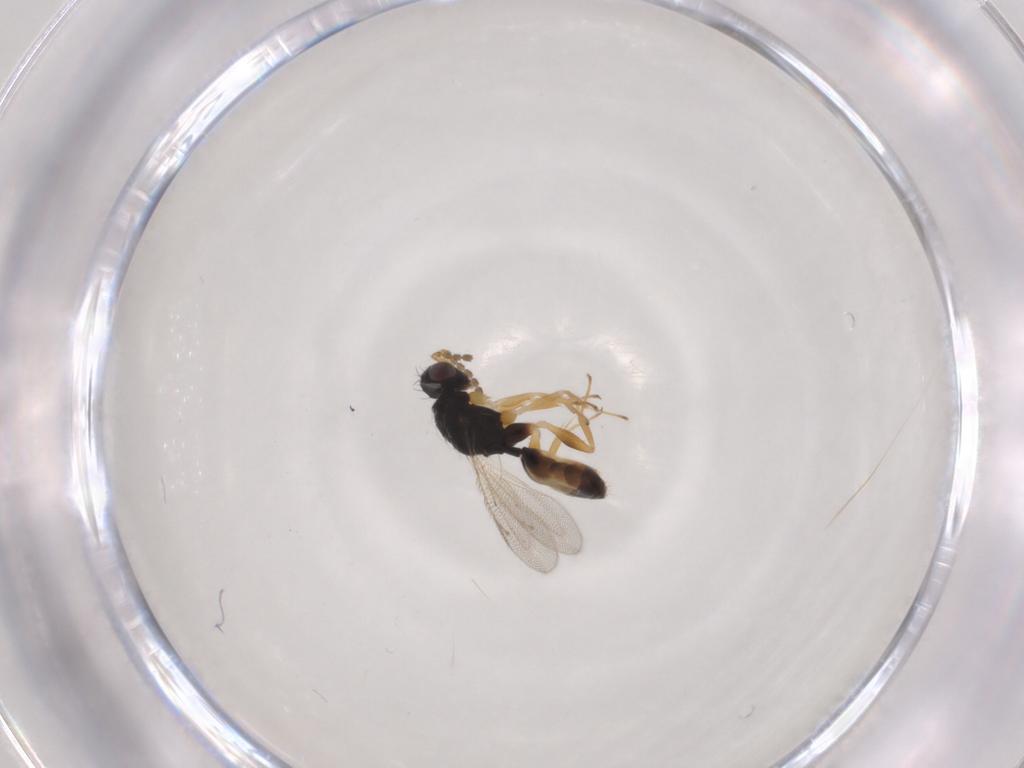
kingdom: Animalia
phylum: Arthropoda
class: Insecta
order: Hymenoptera
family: Eulophidae
